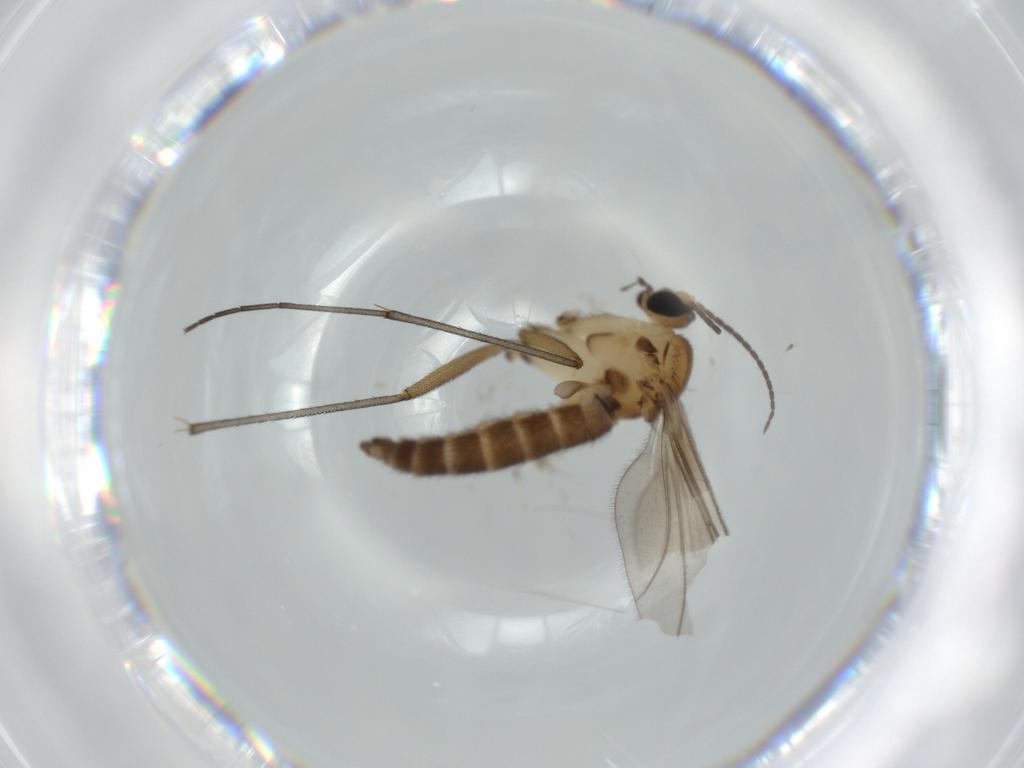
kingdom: Animalia
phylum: Arthropoda
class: Insecta
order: Diptera
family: Sciaridae
